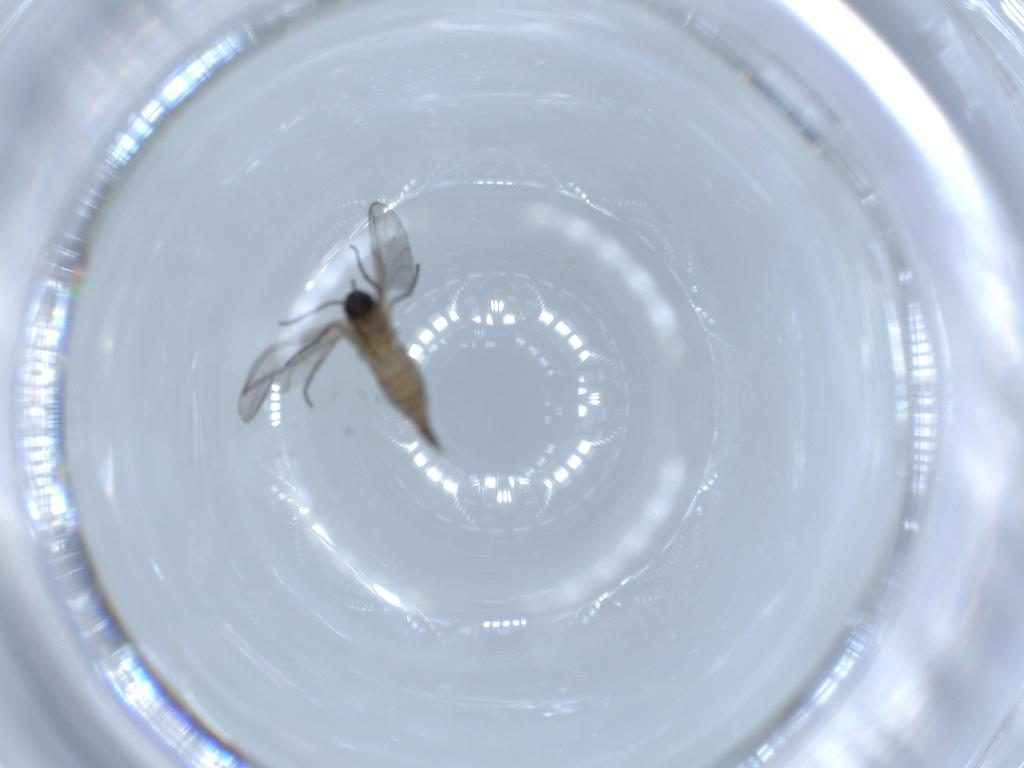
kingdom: Animalia
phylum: Arthropoda
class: Insecta
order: Diptera
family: Sciaridae
